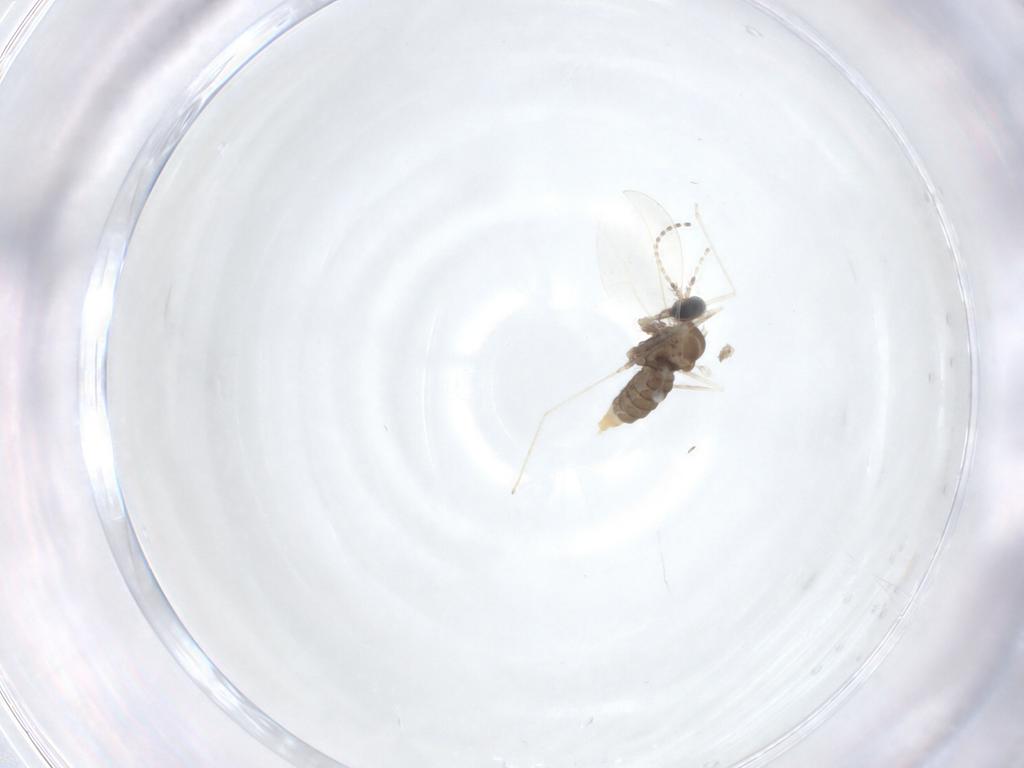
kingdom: Animalia
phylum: Arthropoda
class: Insecta
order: Diptera
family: Cecidomyiidae
